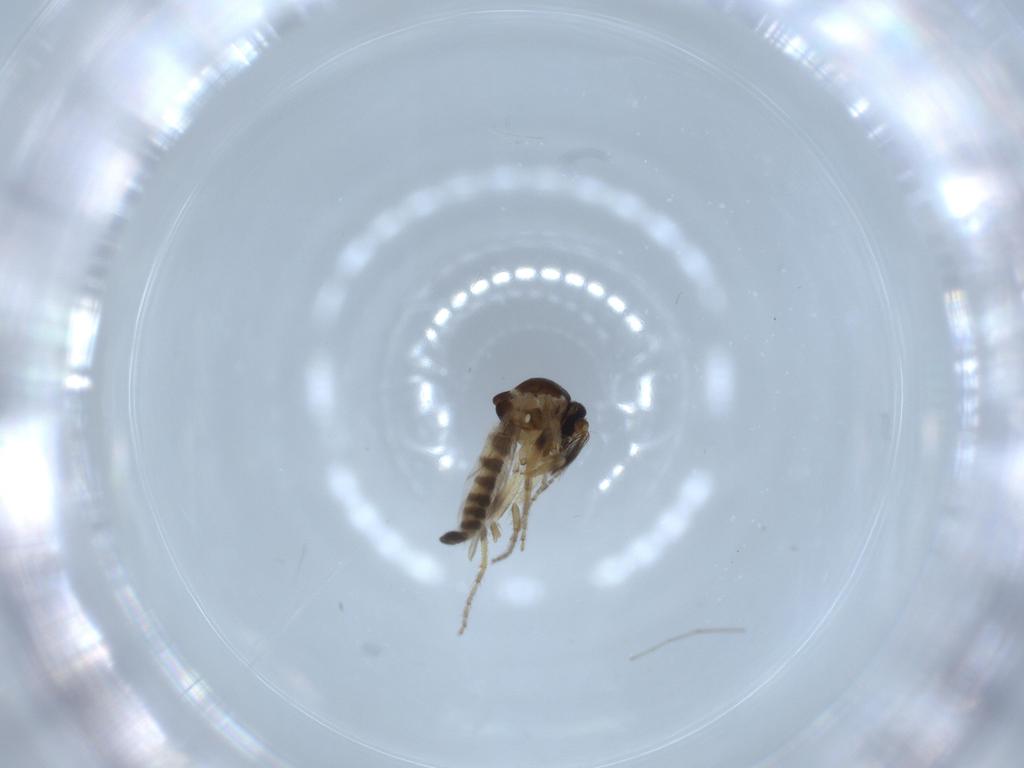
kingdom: Animalia
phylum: Arthropoda
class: Insecta
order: Diptera
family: Ceratopogonidae
